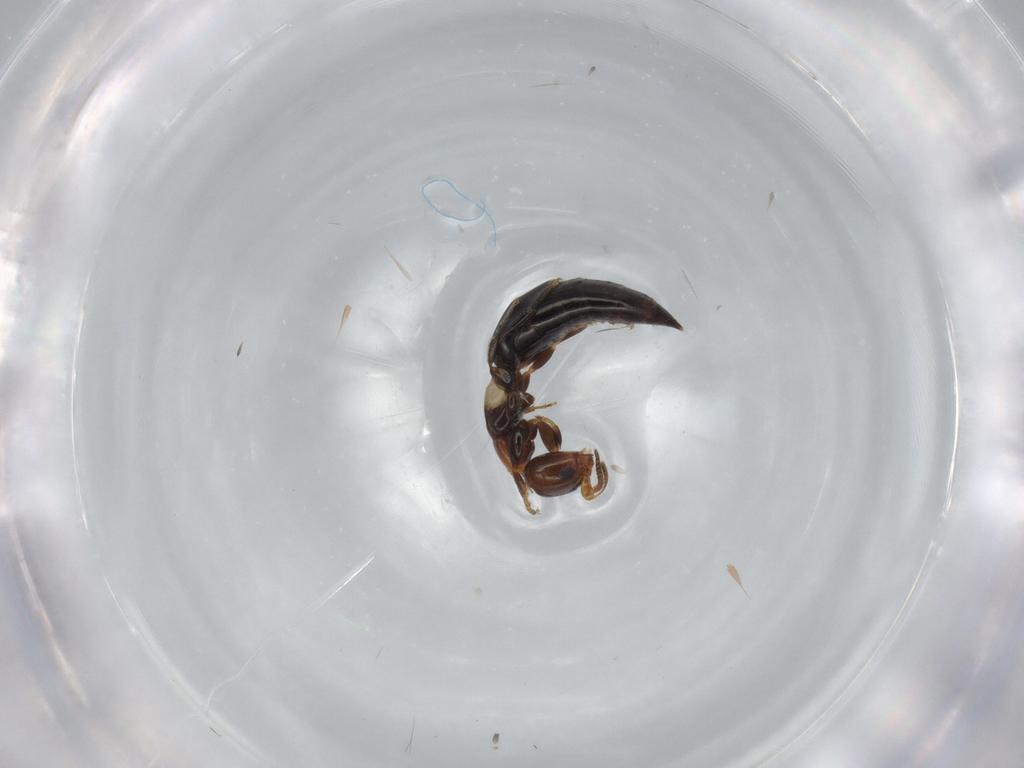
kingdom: Animalia
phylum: Arthropoda
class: Insecta
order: Hymenoptera
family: Bethylidae
